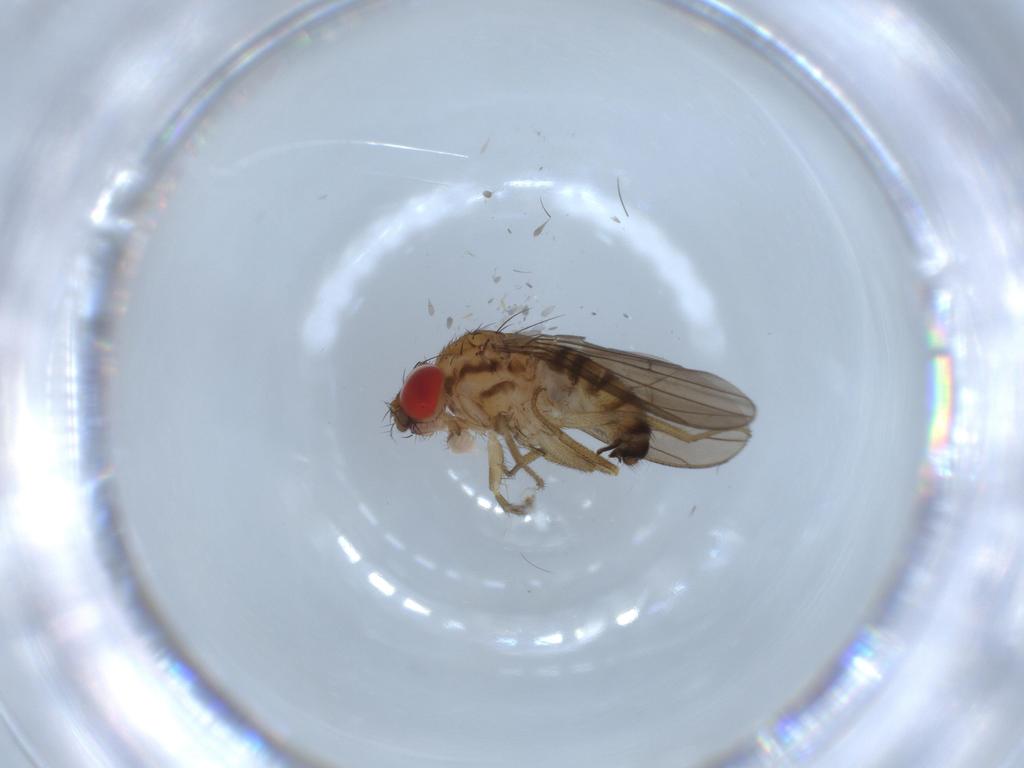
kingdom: Animalia
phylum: Arthropoda
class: Insecta
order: Diptera
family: Drosophilidae
